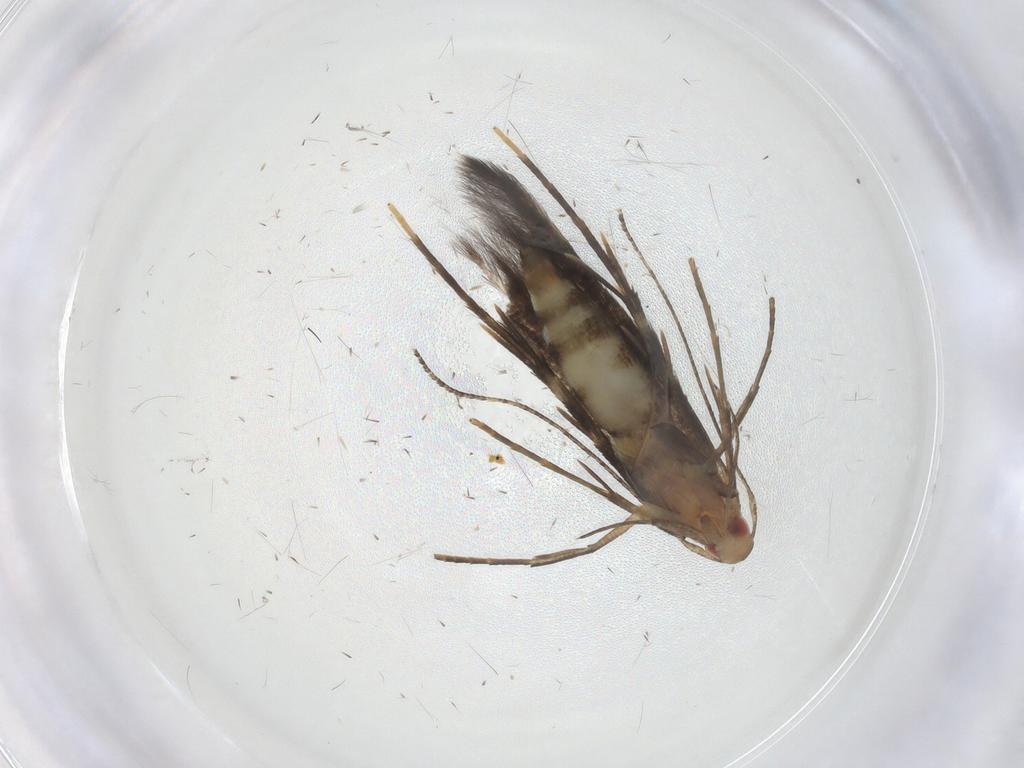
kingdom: Animalia
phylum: Arthropoda
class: Insecta
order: Lepidoptera
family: Cosmopterigidae
